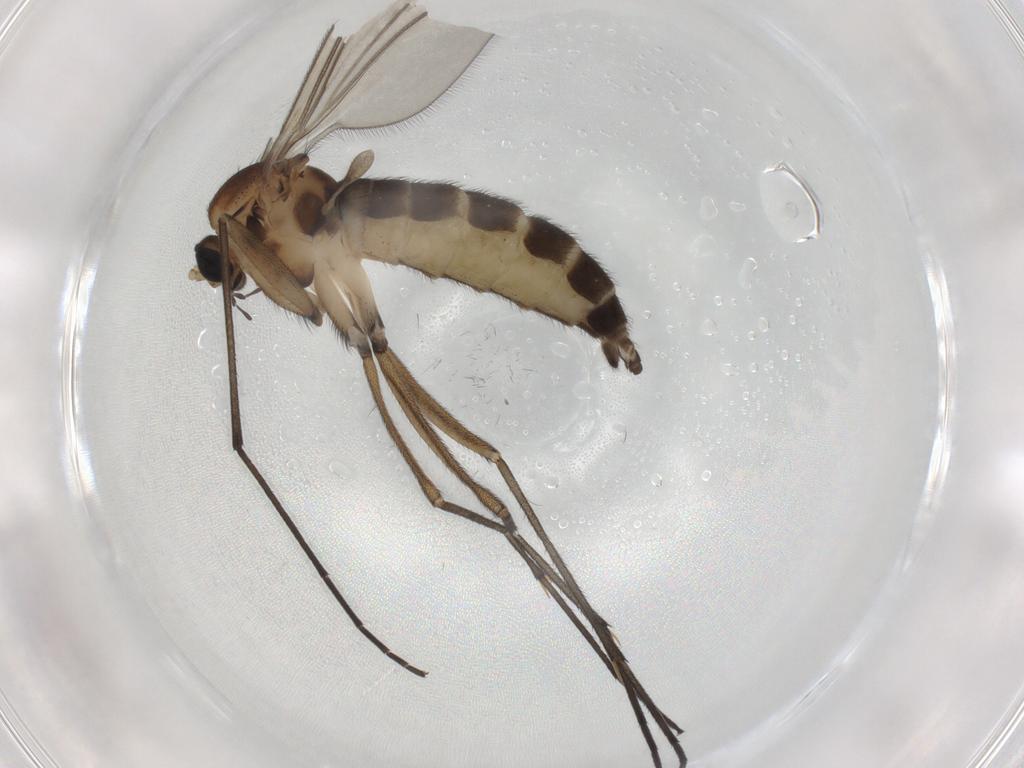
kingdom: Animalia
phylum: Arthropoda
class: Insecta
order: Diptera
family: Sciaridae
